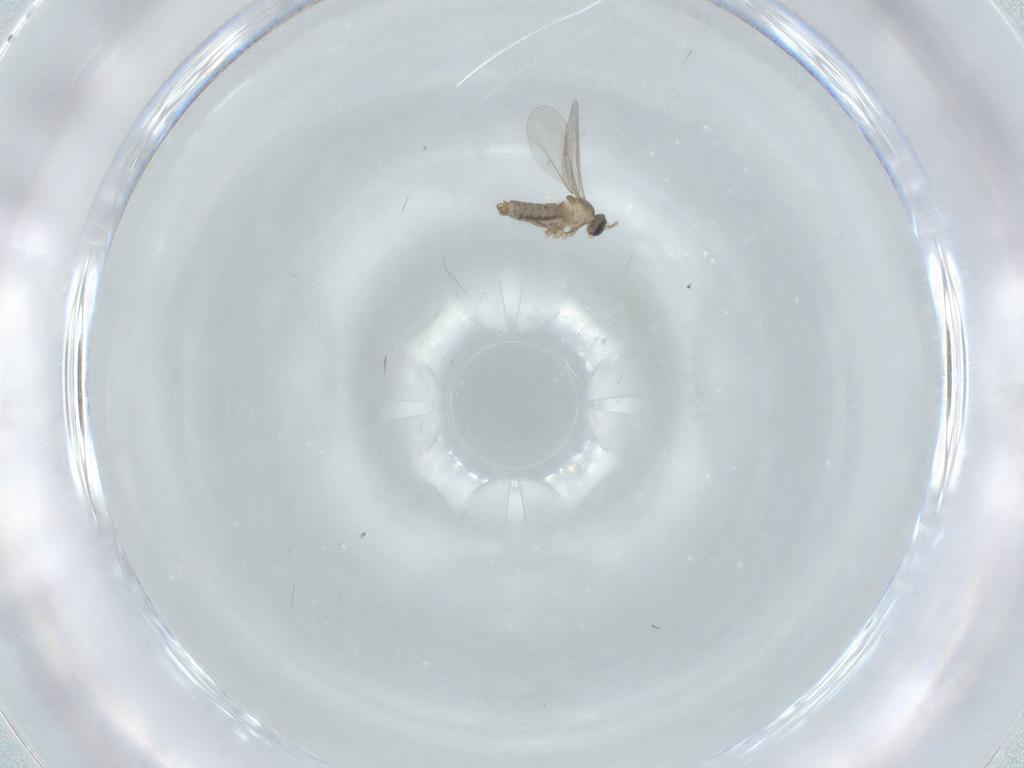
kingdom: Animalia
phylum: Arthropoda
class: Insecta
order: Diptera
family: Cecidomyiidae
